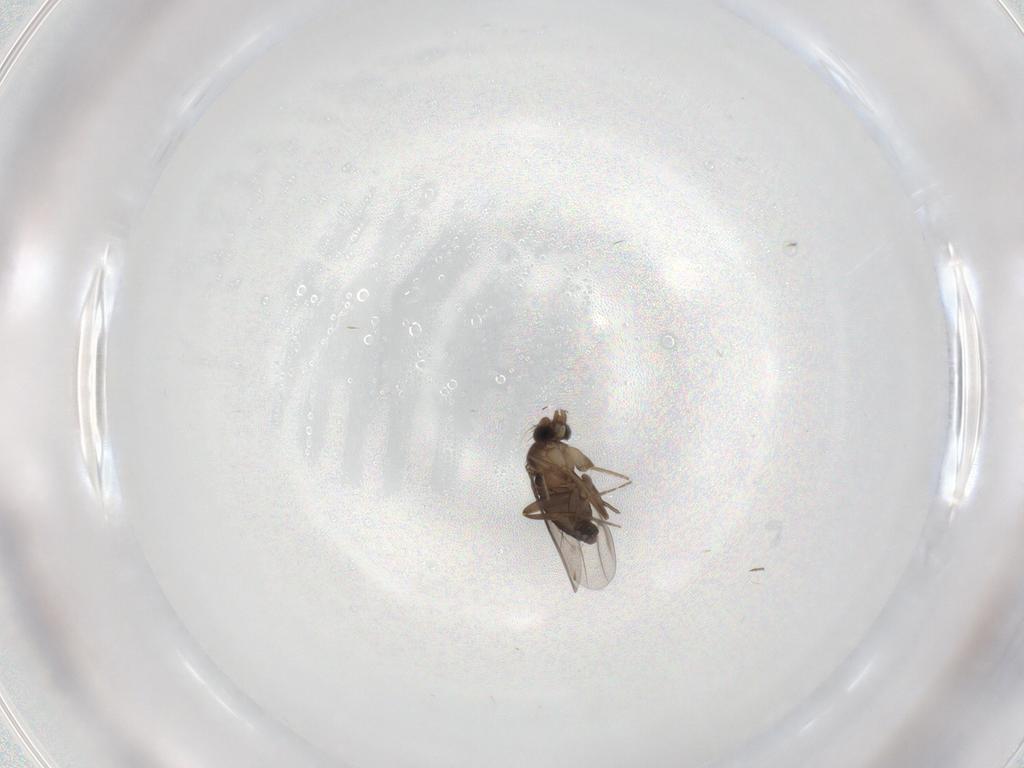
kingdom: Animalia
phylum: Arthropoda
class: Insecta
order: Diptera
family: Phoridae
